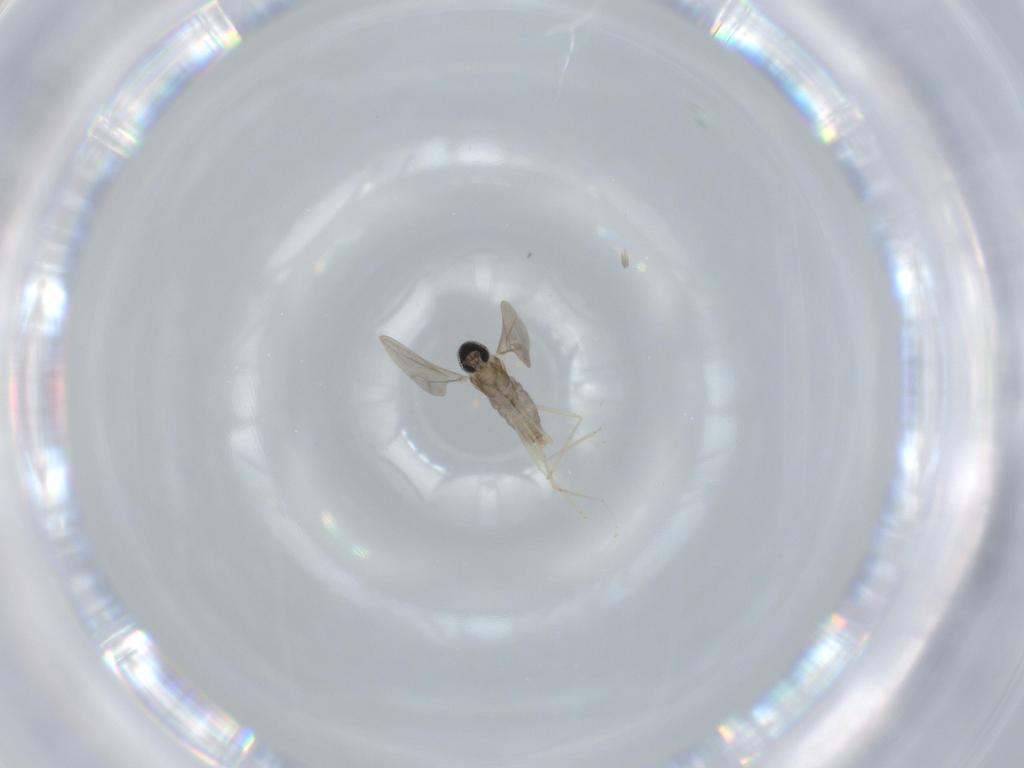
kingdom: Animalia
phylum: Arthropoda
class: Insecta
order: Diptera
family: Cecidomyiidae
